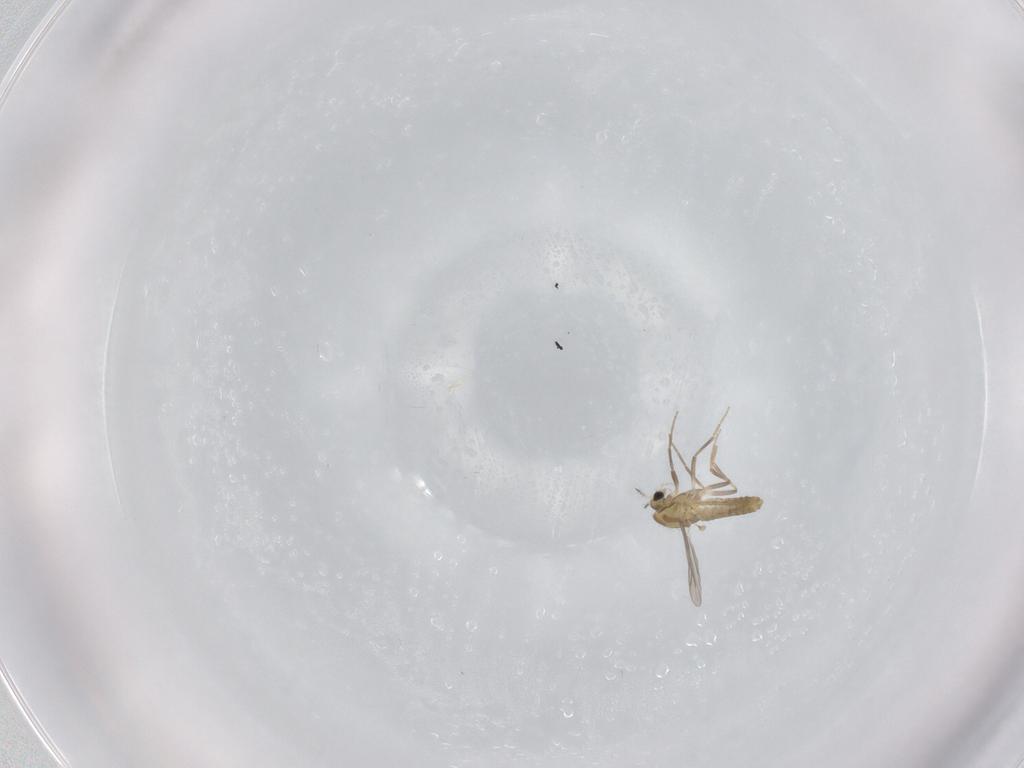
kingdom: Animalia
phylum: Arthropoda
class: Insecta
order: Diptera
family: Chironomidae
